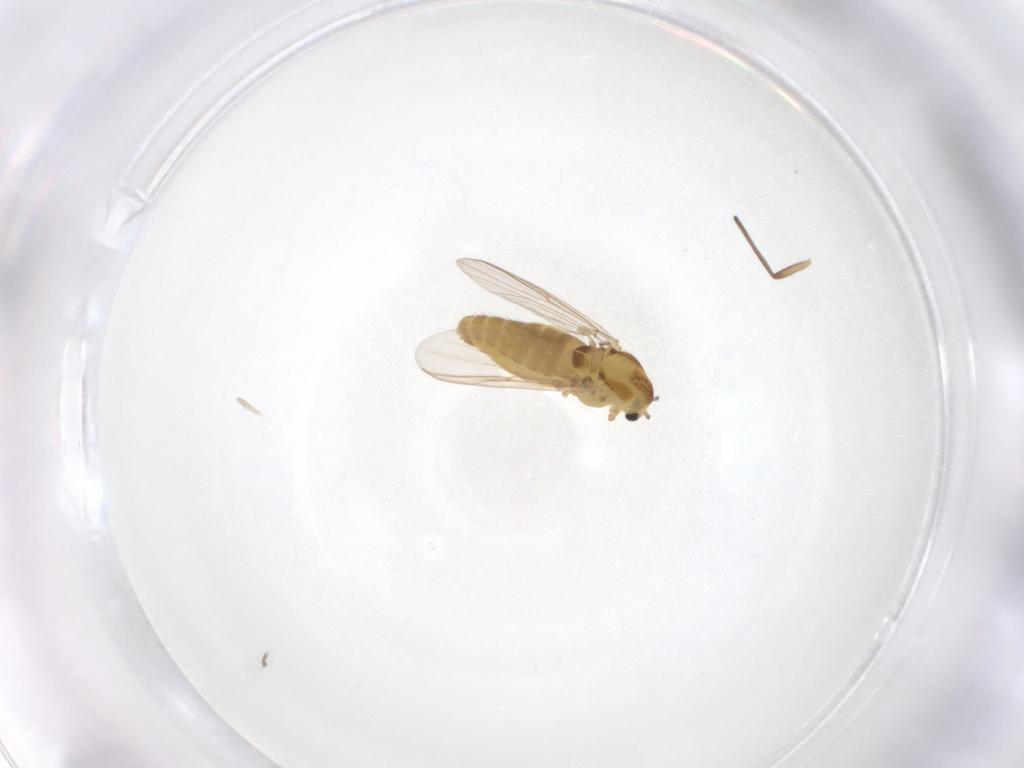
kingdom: Animalia
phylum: Arthropoda
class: Insecta
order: Diptera
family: Chironomidae
